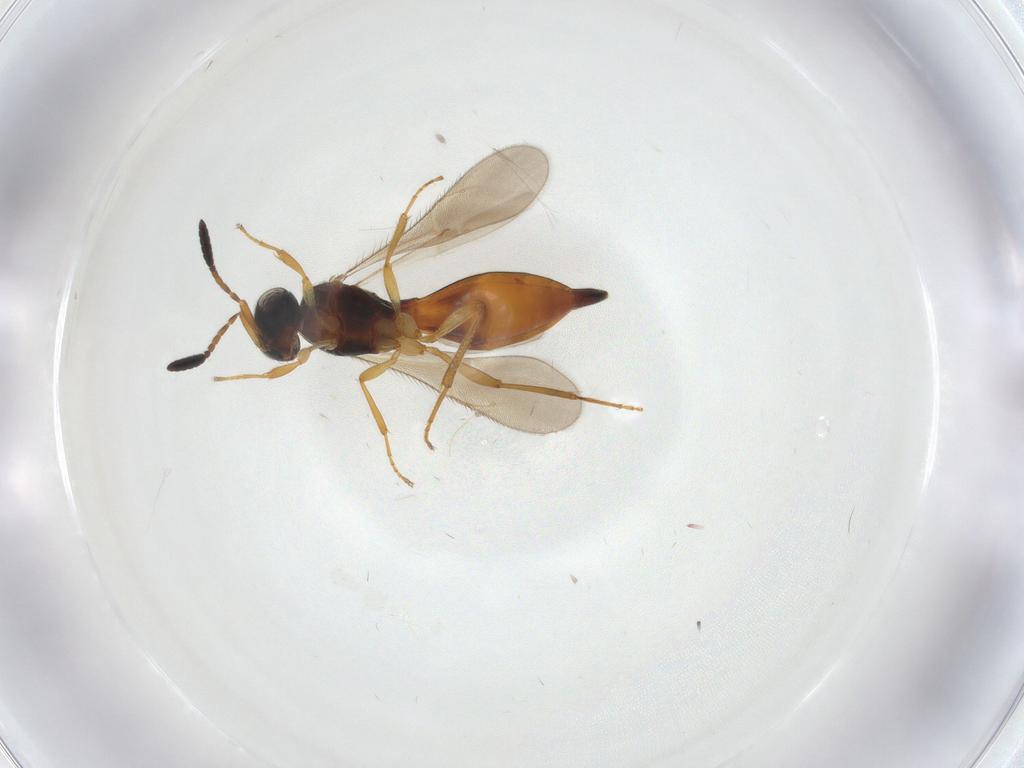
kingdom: Animalia
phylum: Arthropoda
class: Insecta
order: Hymenoptera
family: Scelionidae
